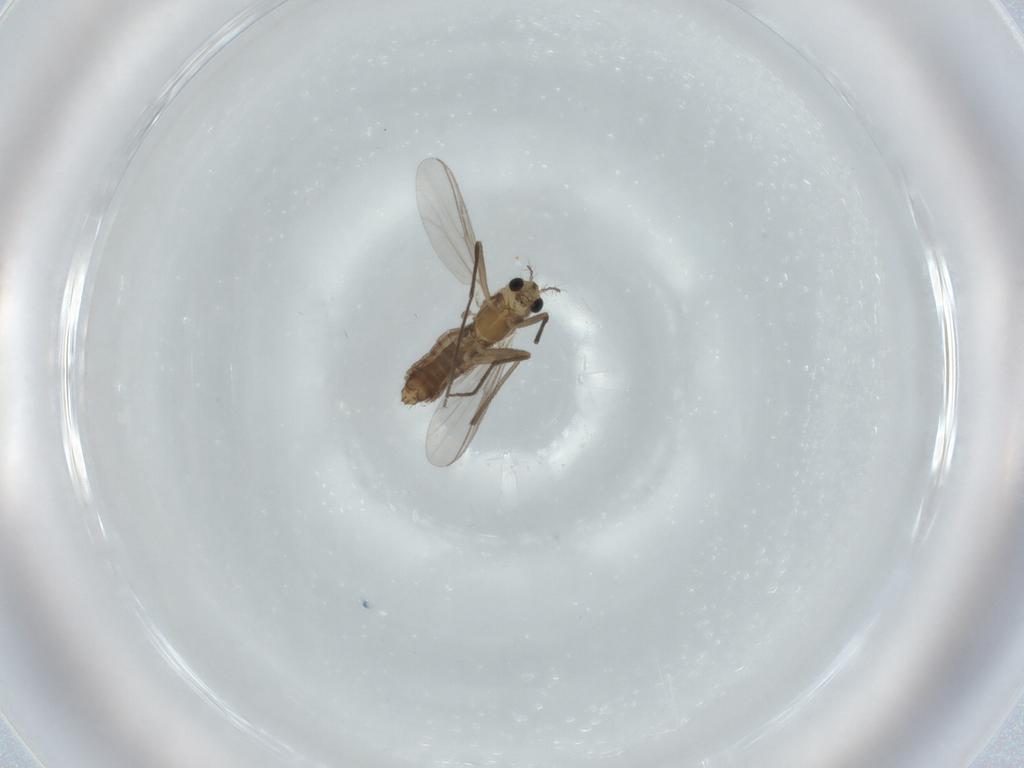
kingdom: Animalia
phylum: Arthropoda
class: Insecta
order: Diptera
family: Chironomidae
